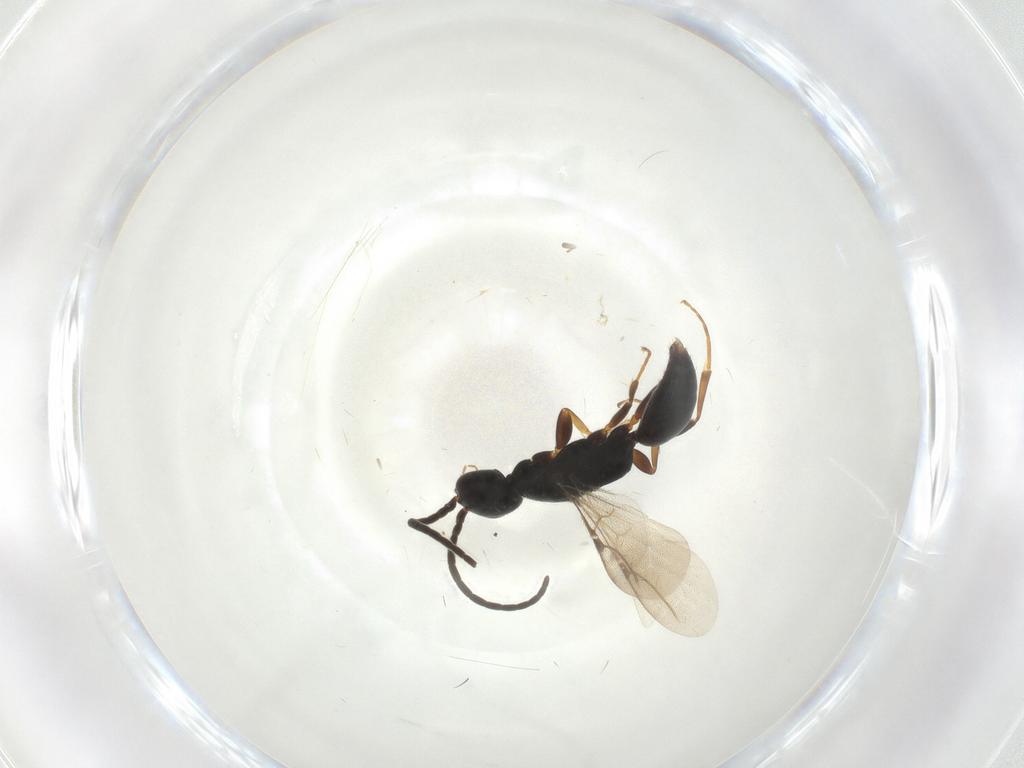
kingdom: Animalia
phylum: Arthropoda
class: Insecta
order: Hymenoptera
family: Bethylidae
